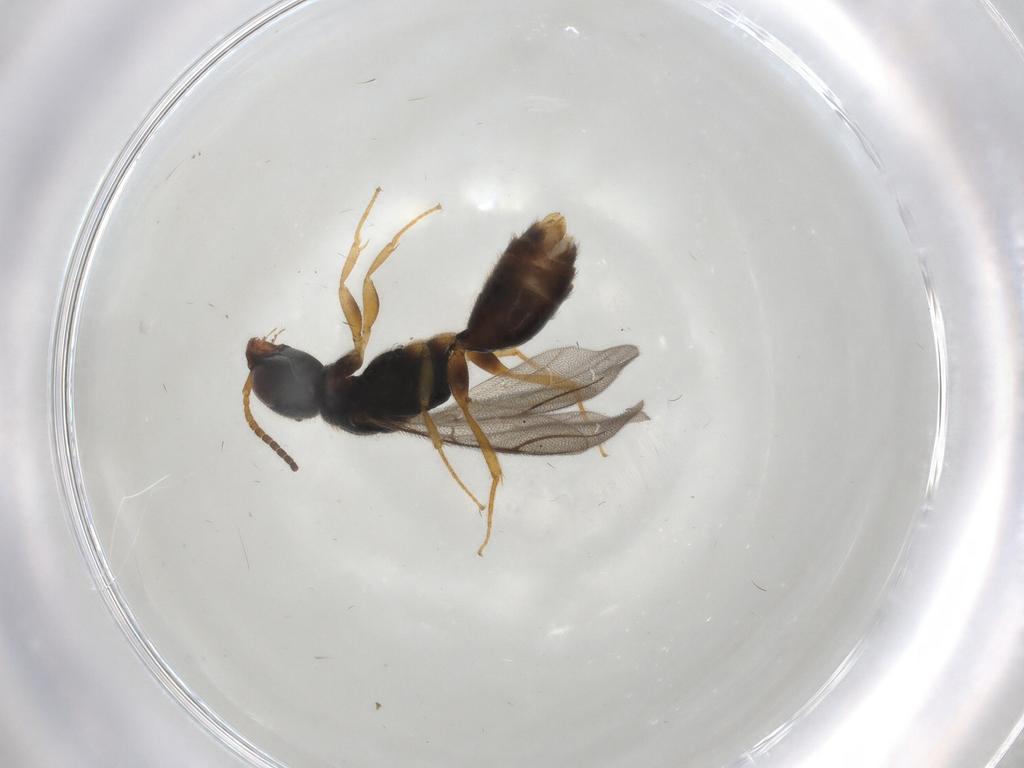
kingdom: Animalia
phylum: Arthropoda
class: Insecta
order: Hymenoptera
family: Bethylidae
